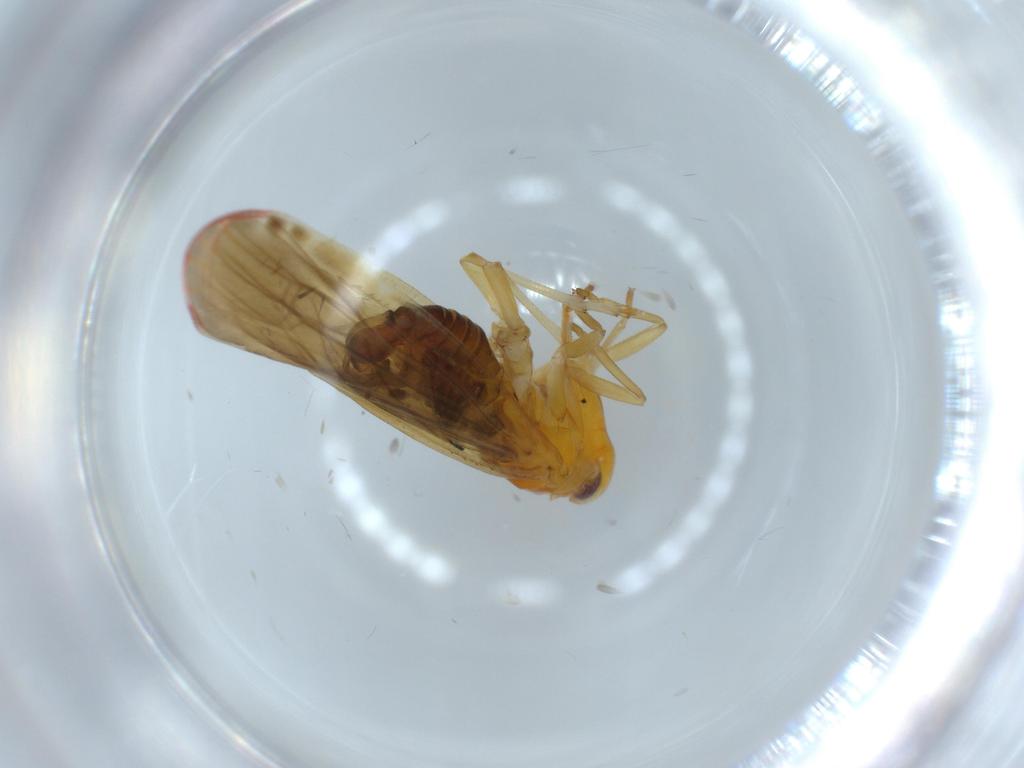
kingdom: Animalia
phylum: Arthropoda
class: Insecta
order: Hemiptera
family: Derbidae
